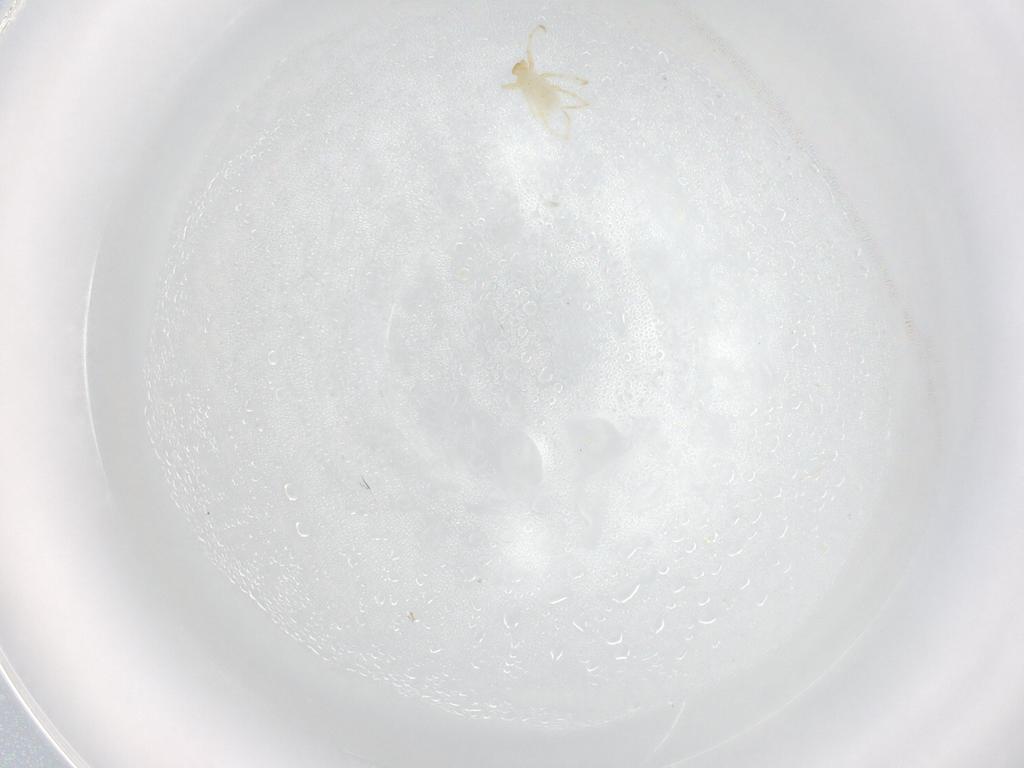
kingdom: Animalia
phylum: Arthropoda
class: Arachnida
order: Trombidiformes
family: Erythraeidae
